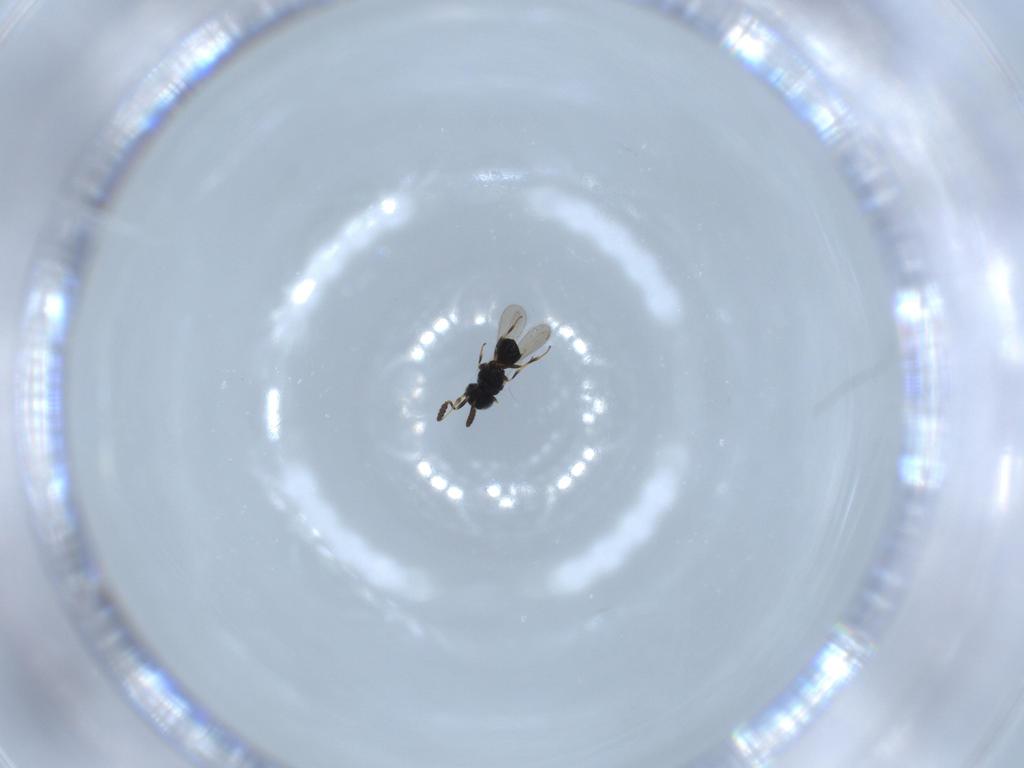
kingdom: Animalia
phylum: Arthropoda
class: Insecta
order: Hymenoptera
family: Scelionidae
